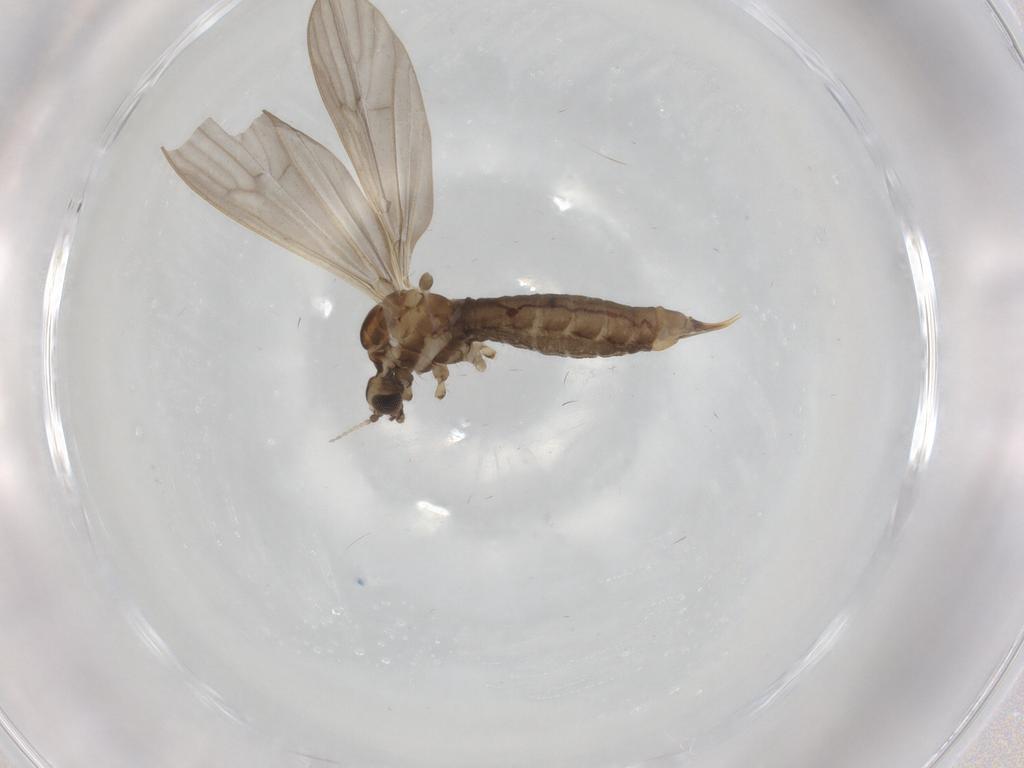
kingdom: Animalia
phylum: Arthropoda
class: Insecta
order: Diptera
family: Limoniidae
